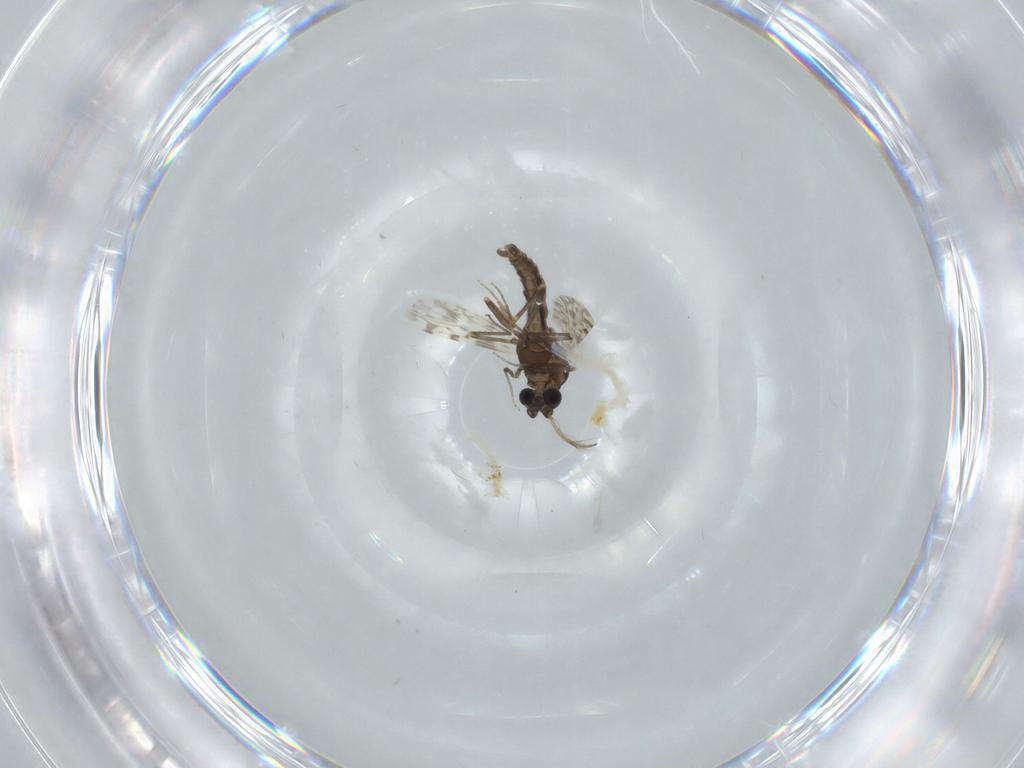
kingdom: Animalia
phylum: Arthropoda
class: Insecta
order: Diptera
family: Ceratopogonidae
